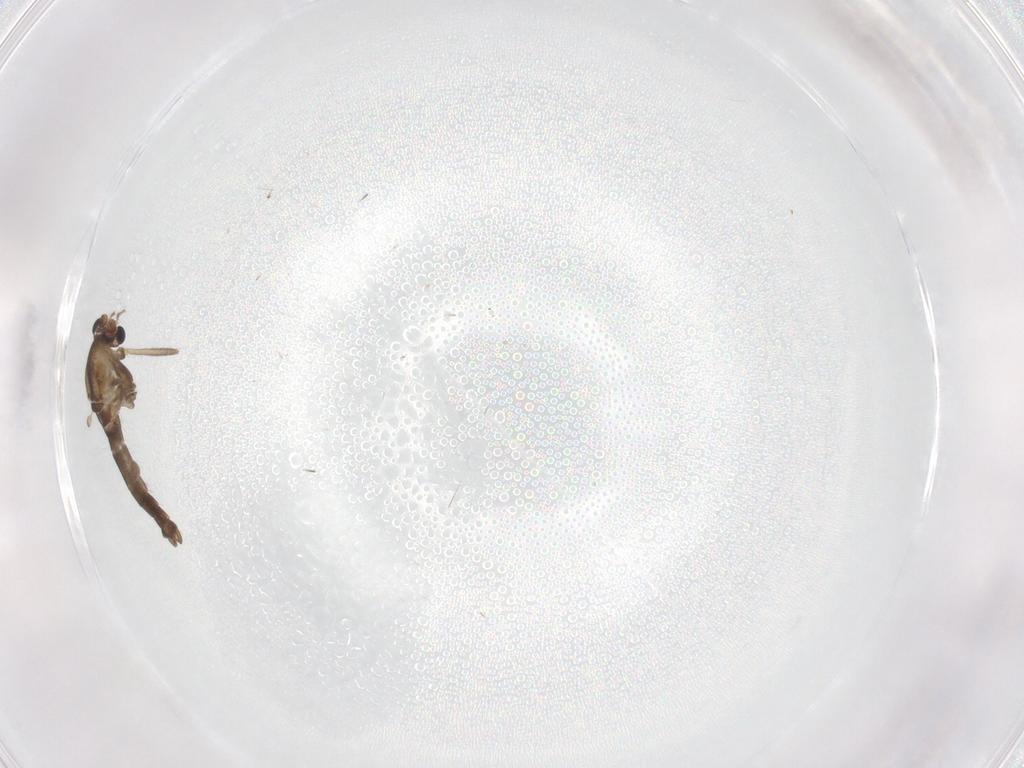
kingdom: Animalia
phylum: Arthropoda
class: Insecta
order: Diptera
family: Chironomidae
